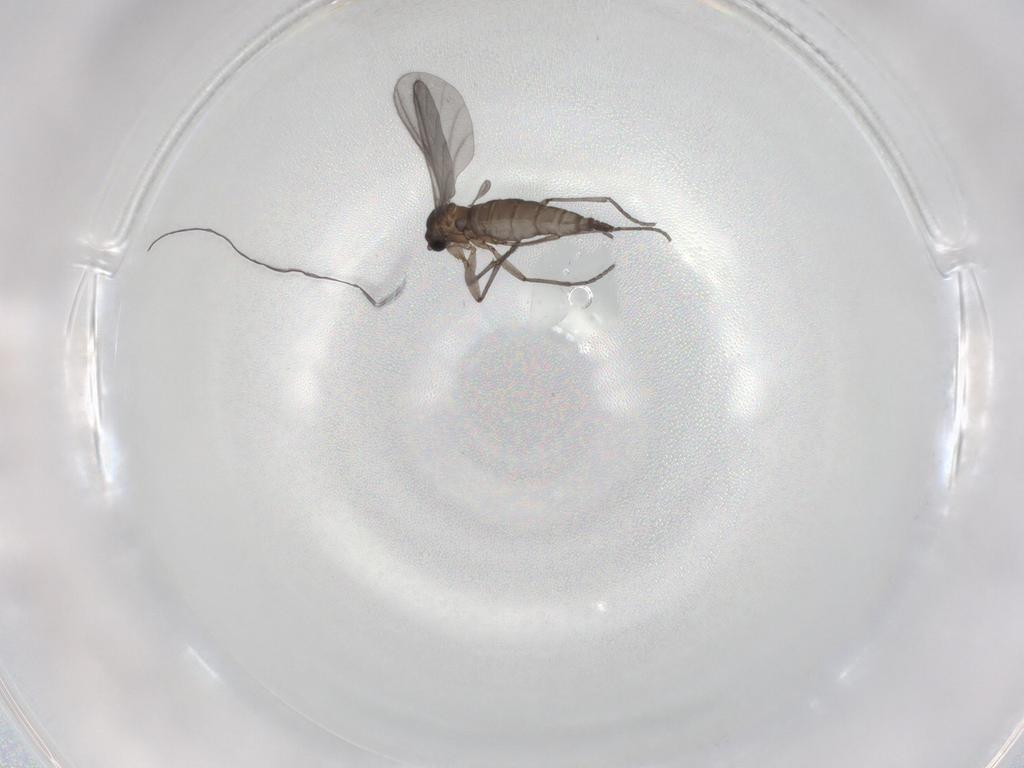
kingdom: Animalia
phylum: Arthropoda
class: Insecta
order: Diptera
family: Sciaridae
